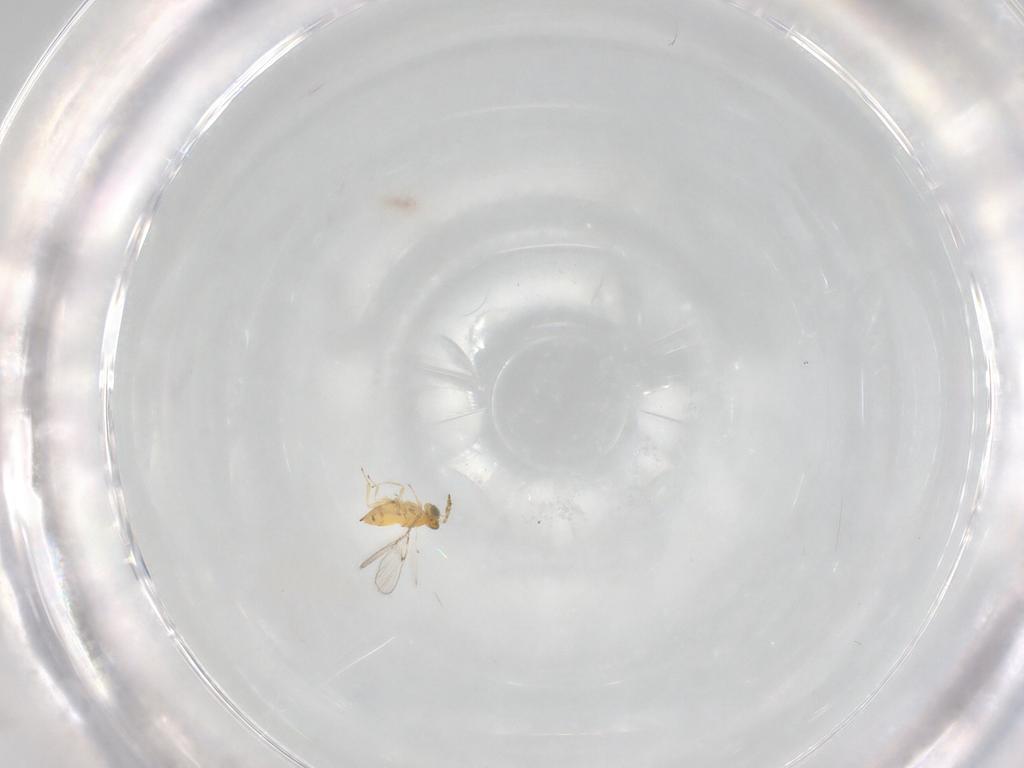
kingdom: Animalia
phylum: Arthropoda
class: Insecta
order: Hymenoptera
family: Trichogrammatidae
